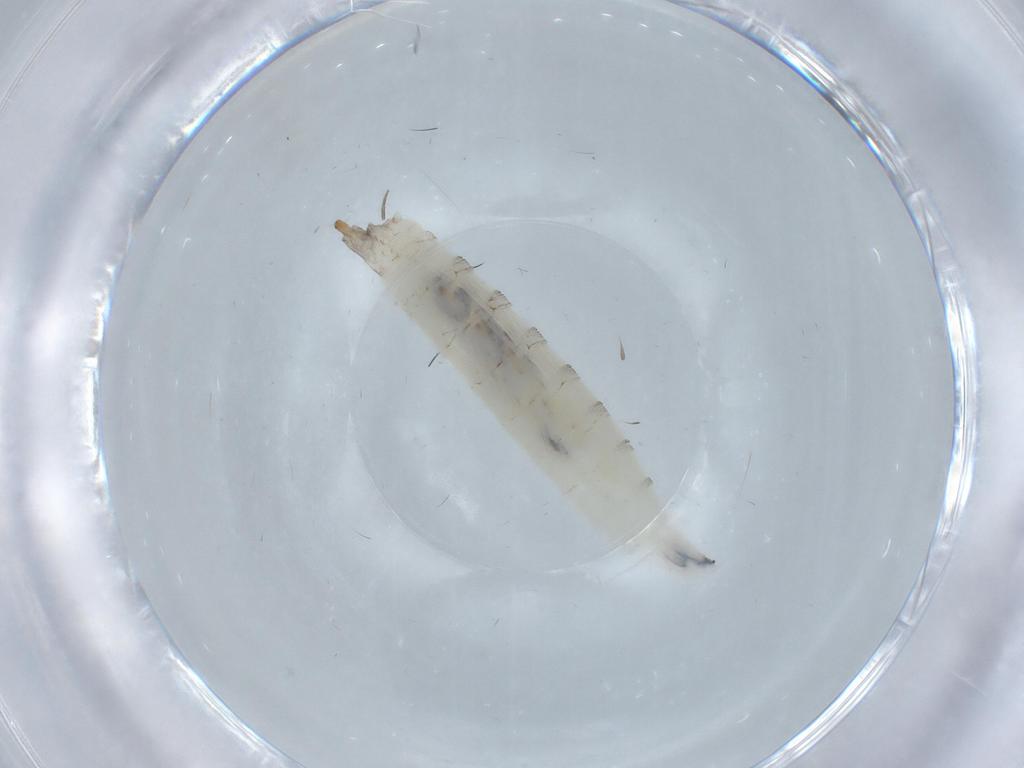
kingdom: Animalia
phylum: Arthropoda
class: Insecta
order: Diptera
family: Drosophilidae
